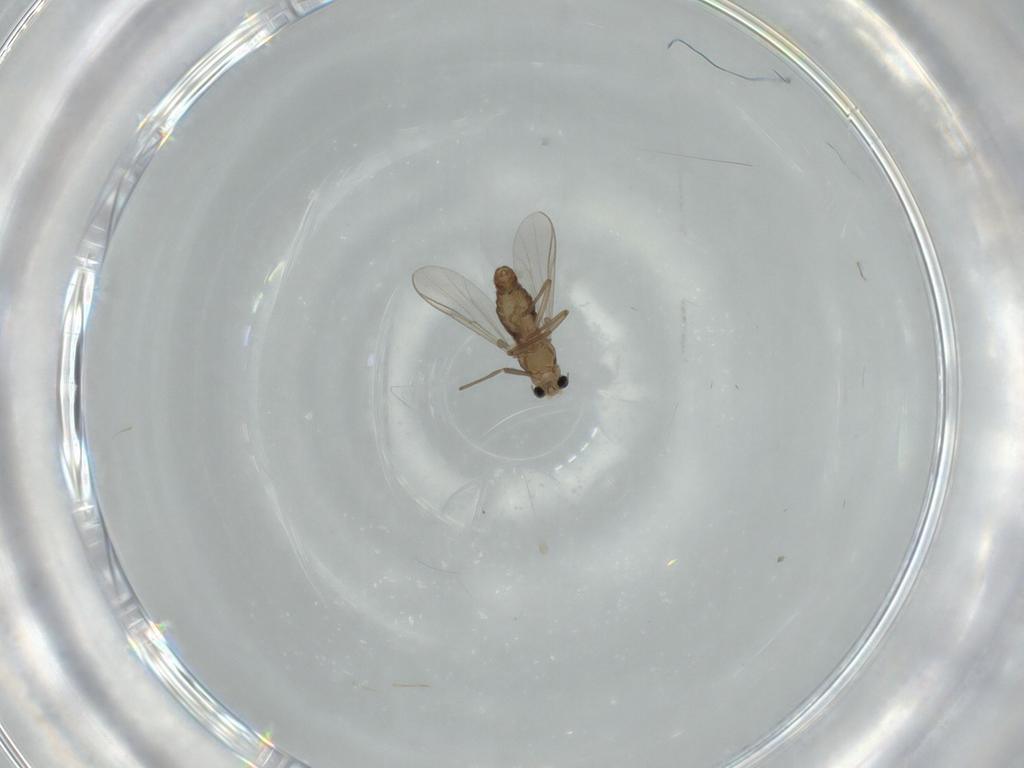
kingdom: Animalia
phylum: Arthropoda
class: Insecta
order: Diptera
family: Chironomidae
